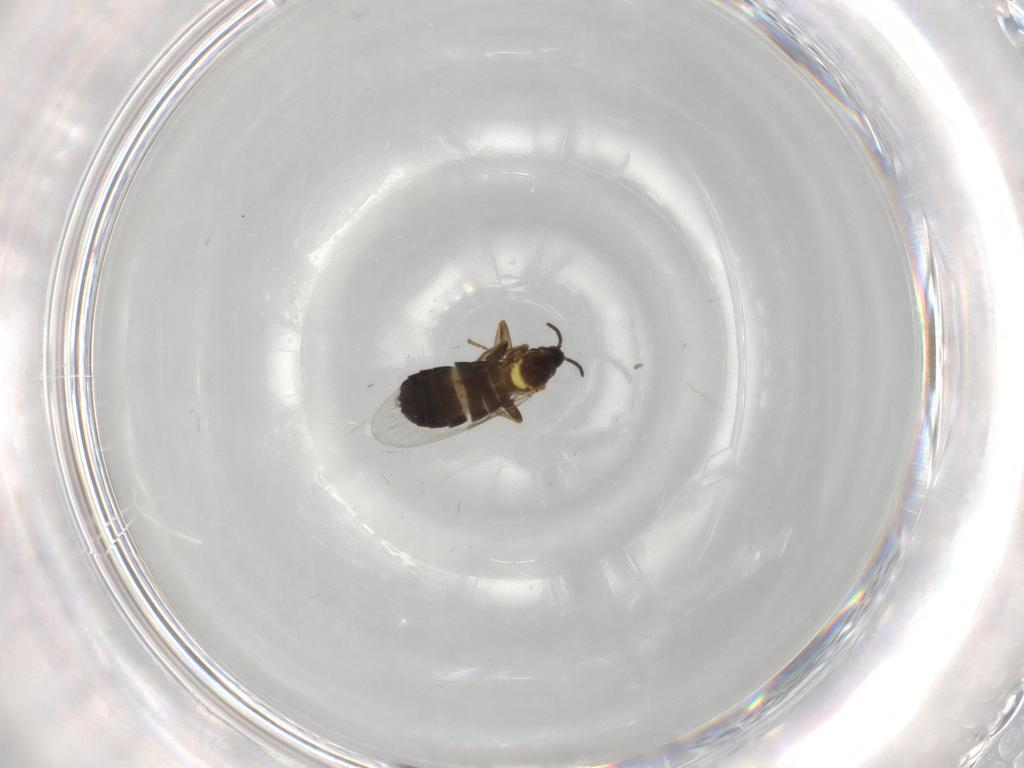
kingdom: Animalia
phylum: Arthropoda
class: Insecta
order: Diptera
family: Scatopsidae
